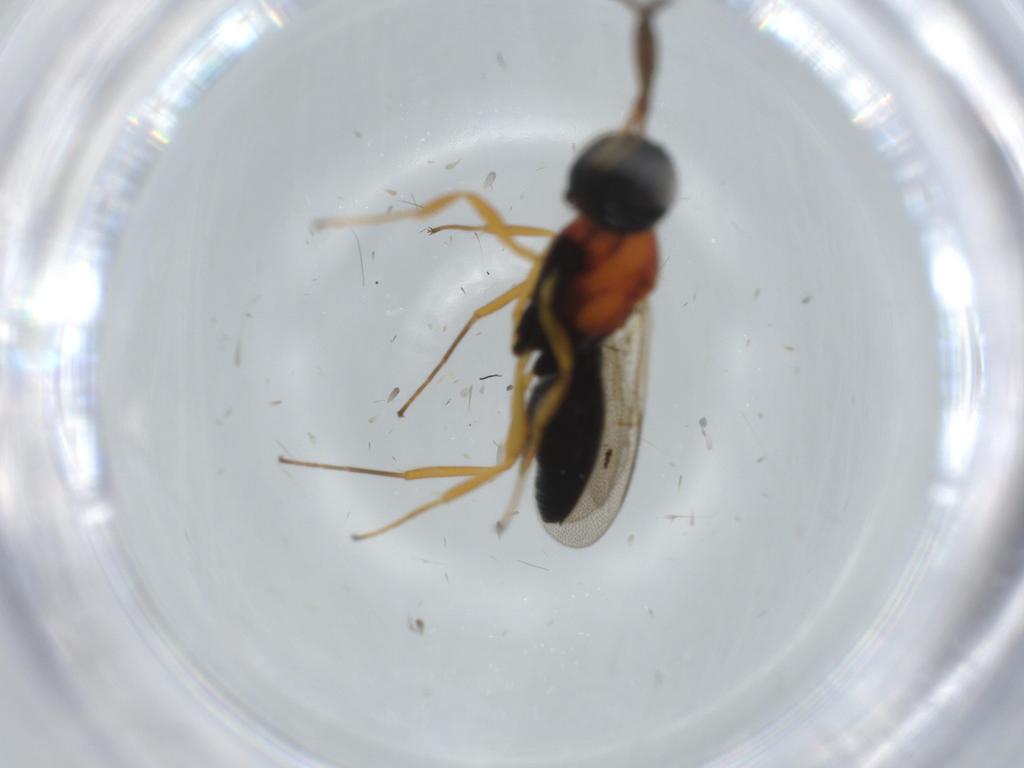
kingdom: Animalia
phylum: Arthropoda
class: Insecta
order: Hymenoptera
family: Scelionidae
